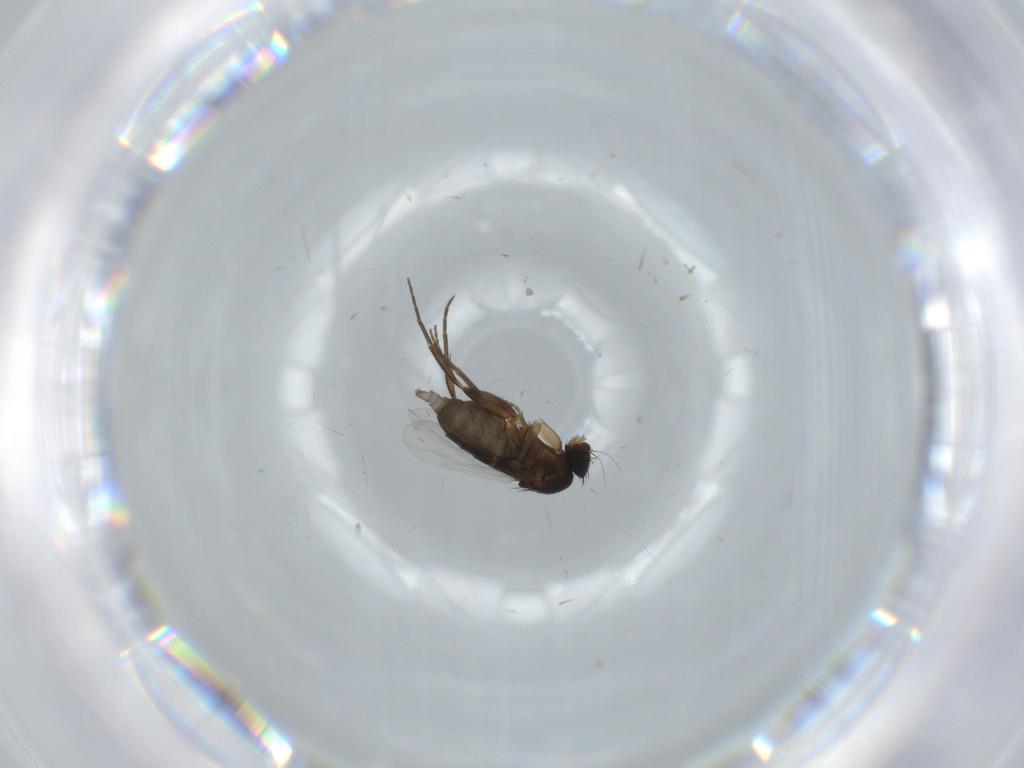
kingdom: Animalia
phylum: Arthropoda
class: Insecta
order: Diptera
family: Phoridae
